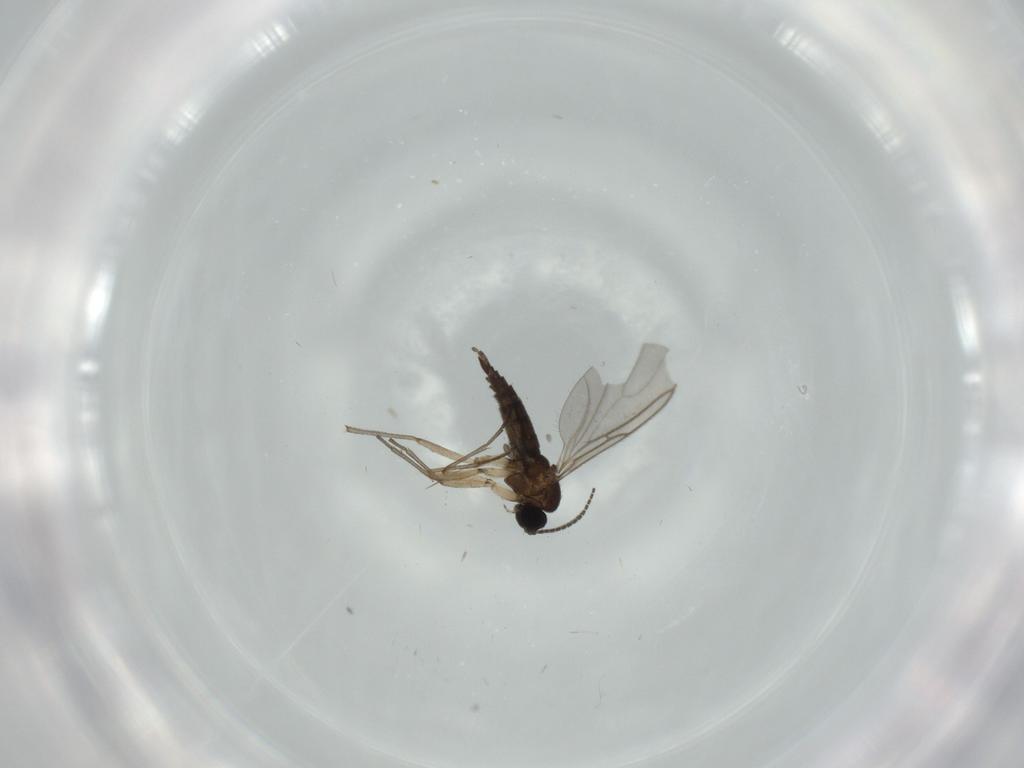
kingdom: Animalia
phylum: Arthropoda
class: Insecta
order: Diptera
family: Sciaridae
